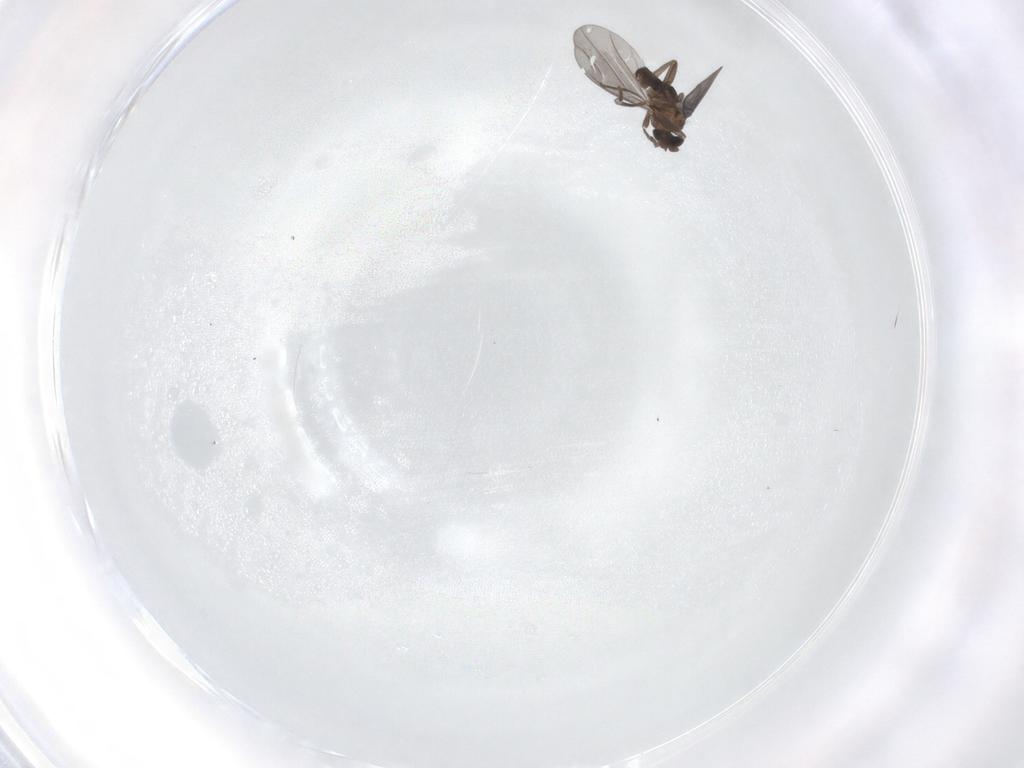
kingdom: Animalia
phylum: Arthropoda
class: Insecta
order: Diptera
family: Phoridae
